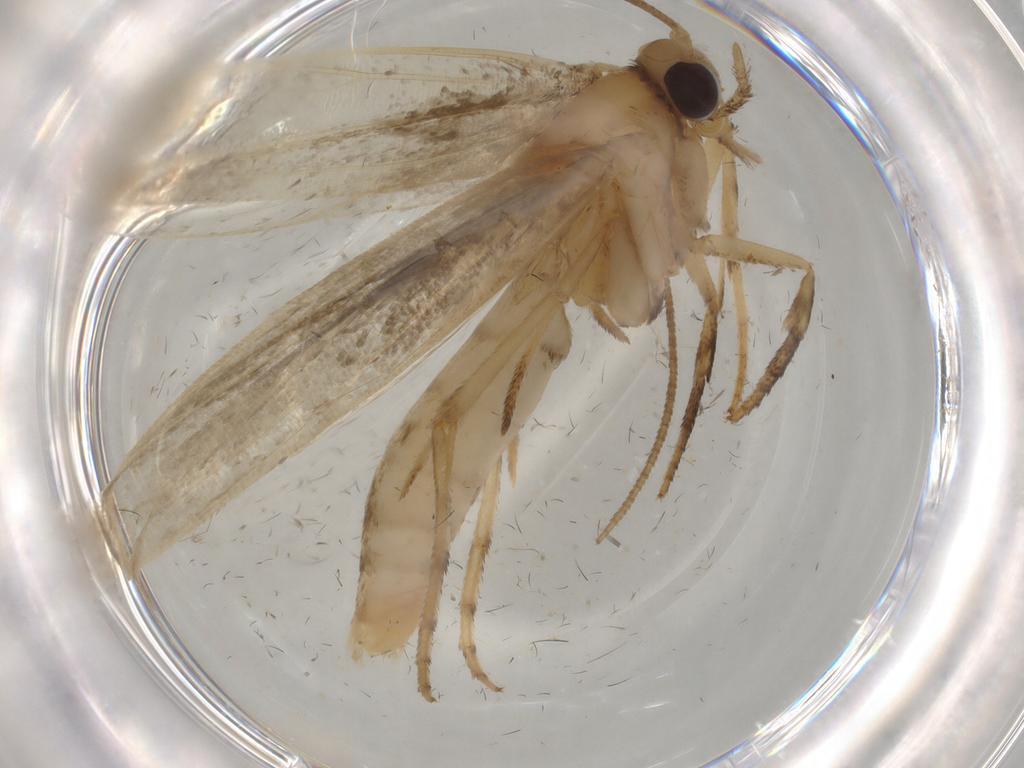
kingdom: Animalia
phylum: Arthropoda
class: Insecta
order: Lepidoptera
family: Yponomeutidae
